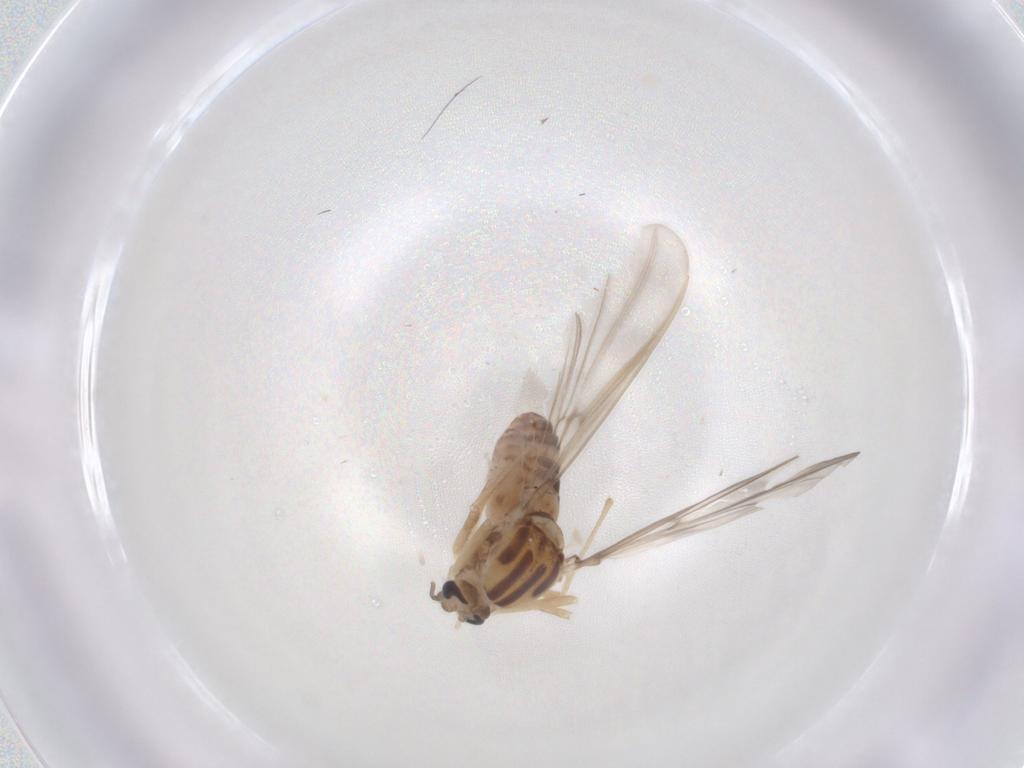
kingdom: Animalia
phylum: Arthropoda
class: Insecta
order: Diptera
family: Chironomidae
